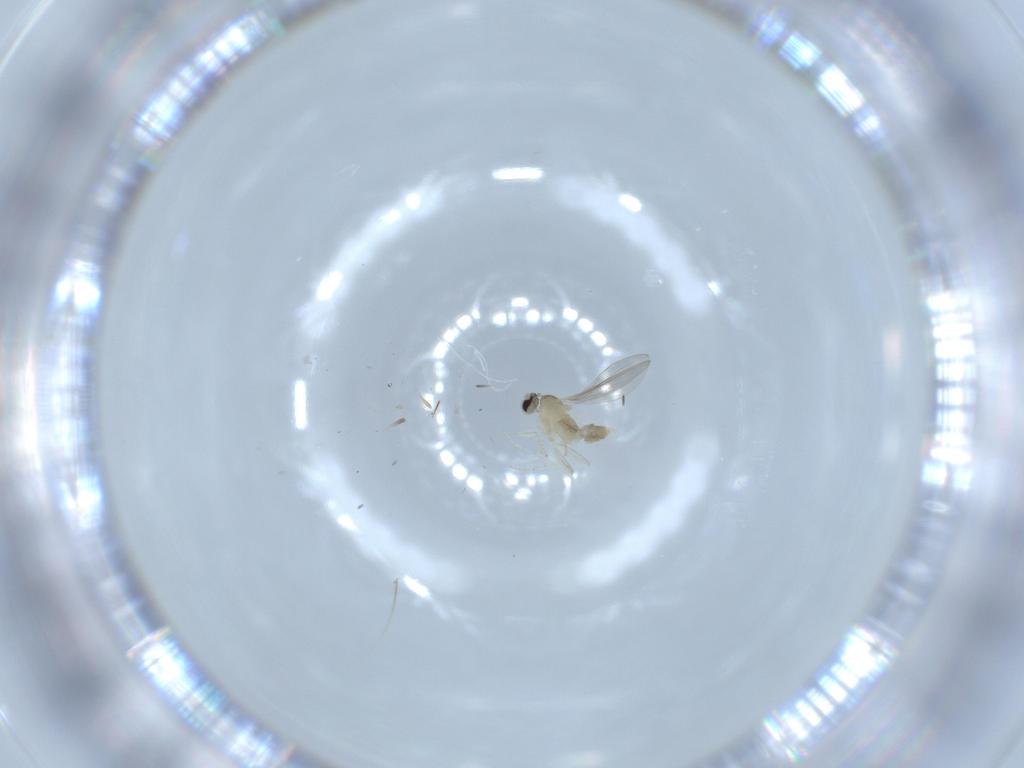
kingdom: Animalia
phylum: Arthropoda
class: Insecta
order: Diptera
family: Cecidomyiidae
